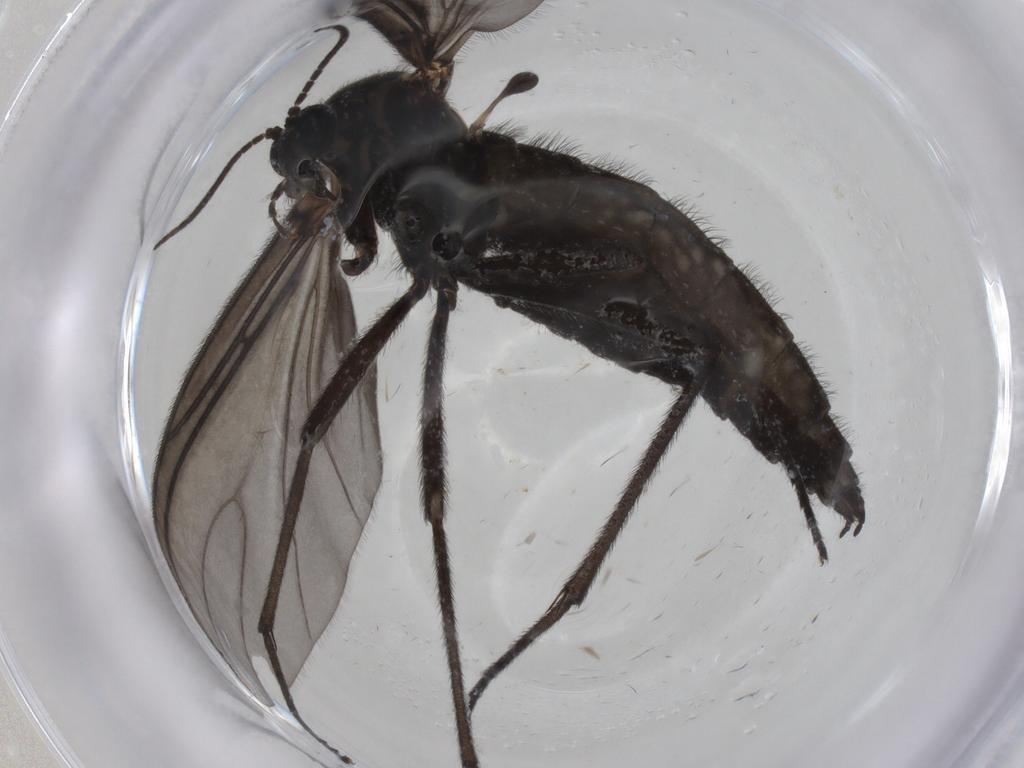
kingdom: Animalia
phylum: Arthropoda
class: Insecta
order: Diptera
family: Sciaridae
